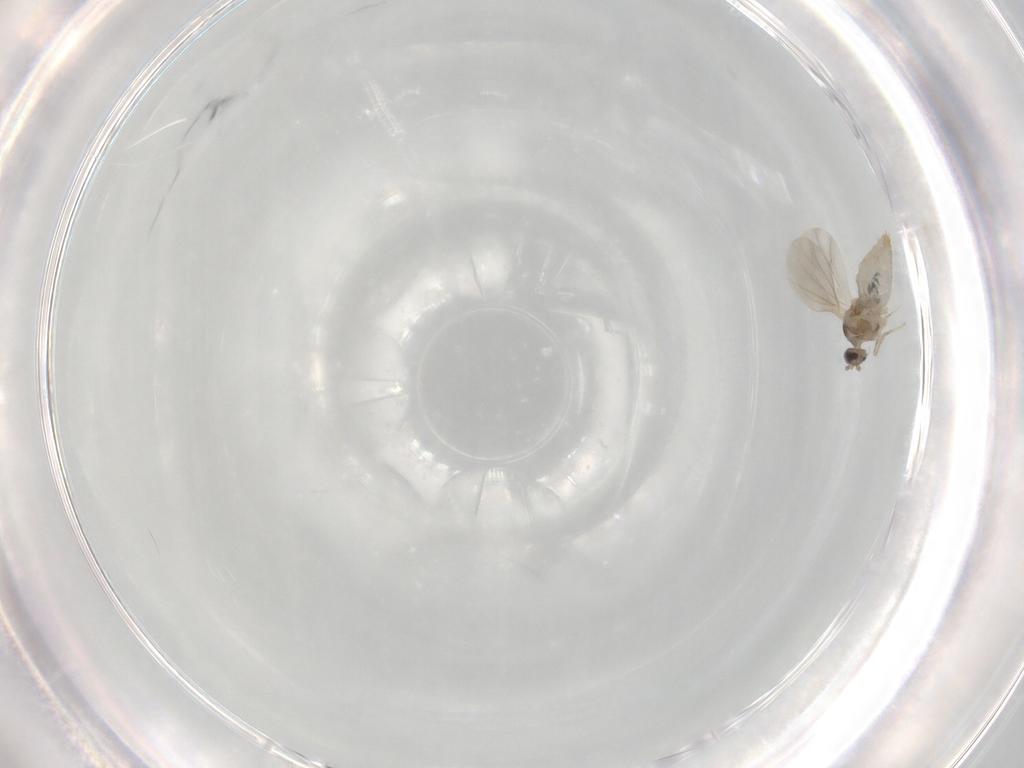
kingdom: Animalia
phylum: Arthropoda
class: Insecta
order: Diptera
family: Cecidomyiidae
